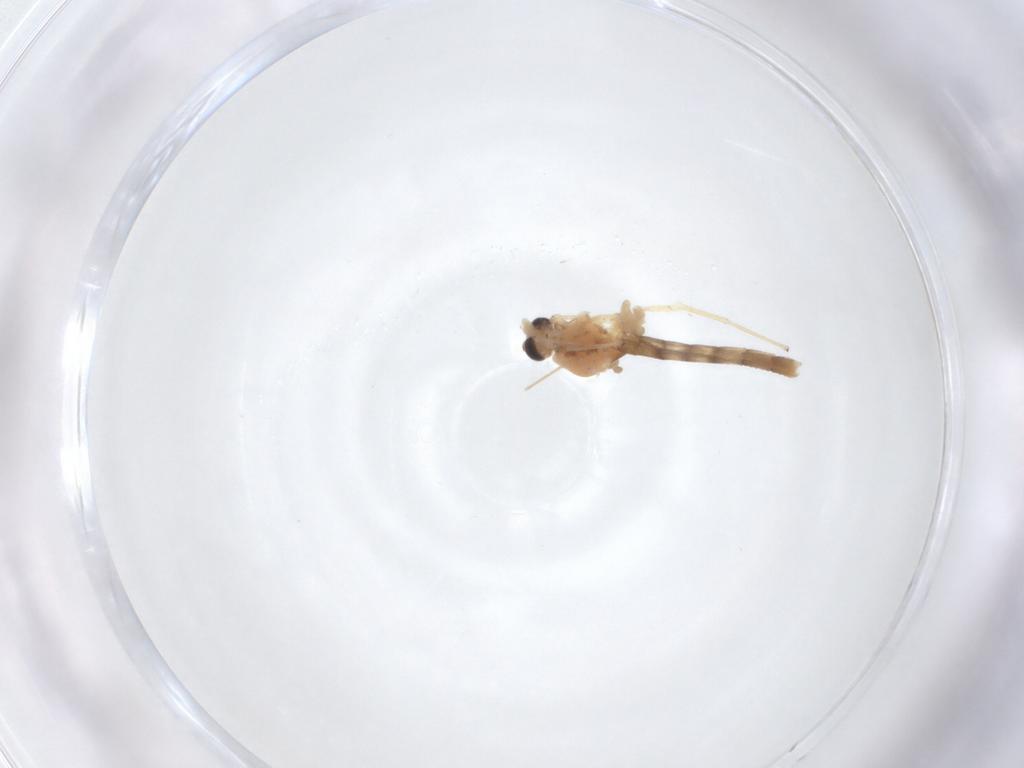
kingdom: Animalia
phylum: Arthropoda
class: Insecta
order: Diptera
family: Chironomidae
